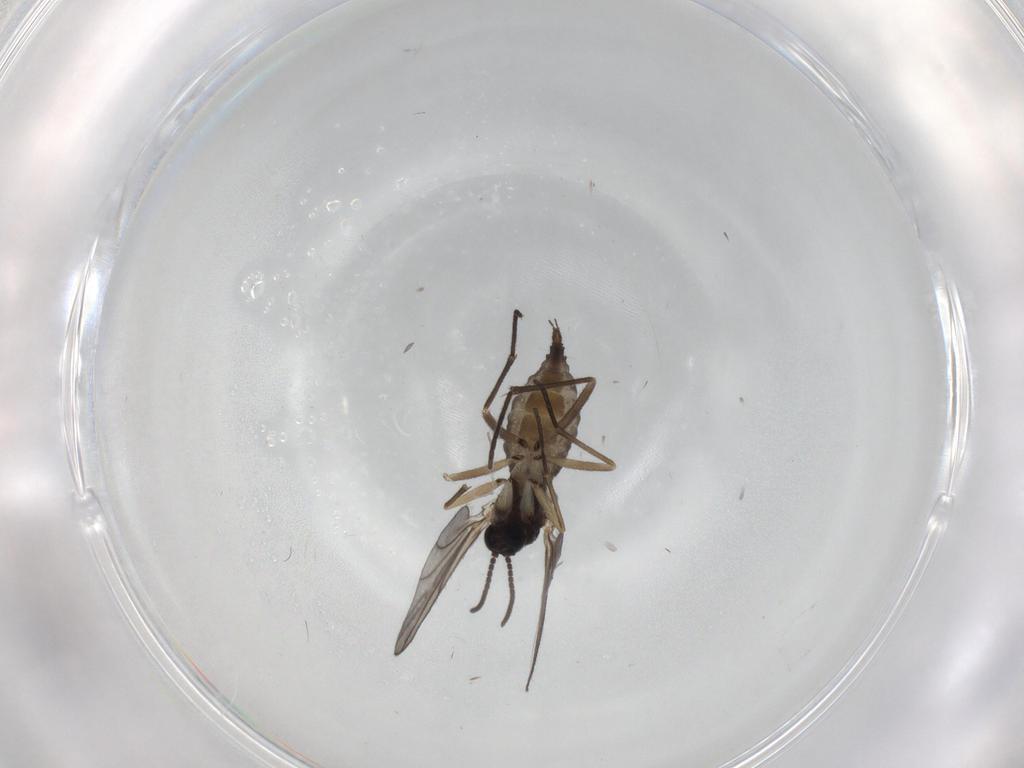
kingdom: Animalia
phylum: Arthropoda
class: Insecta
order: Diptera
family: Sciaridae
